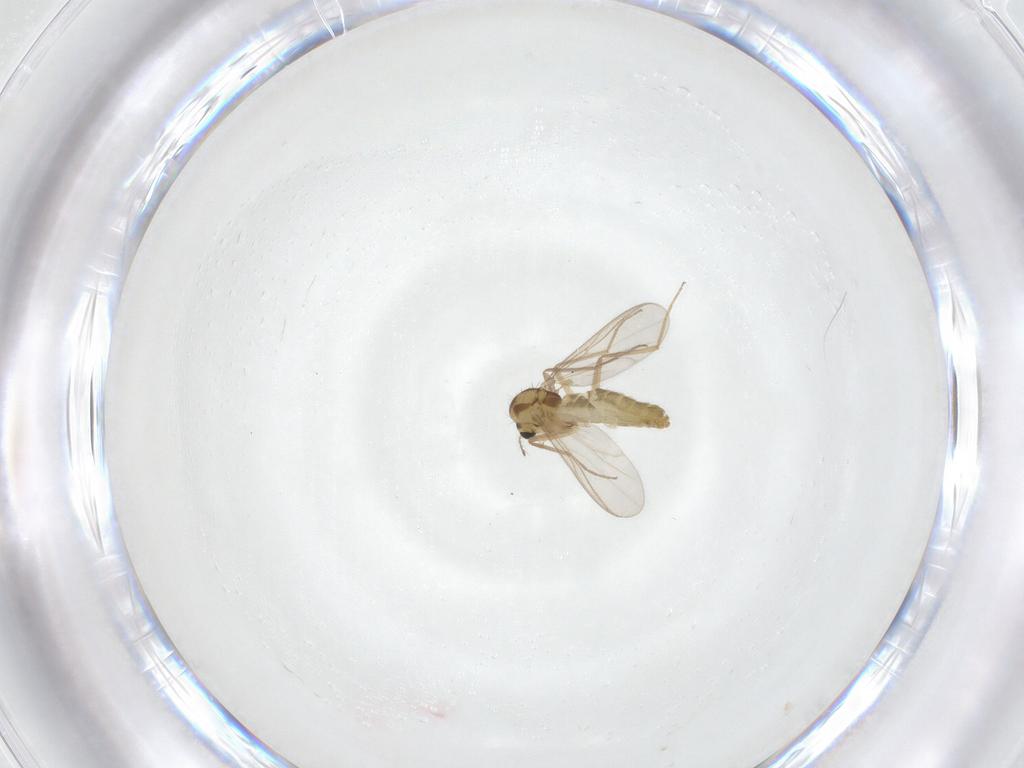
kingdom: Animalia
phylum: Arthropoda
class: Insecta
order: Diptera
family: Chironomidae
